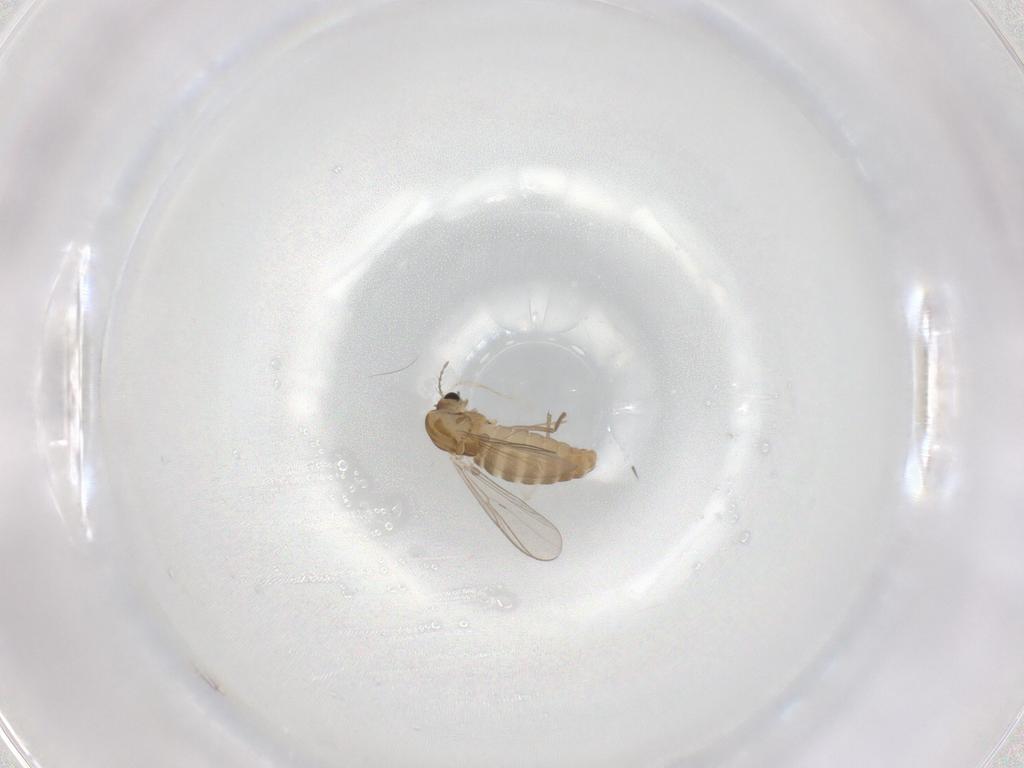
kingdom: Animalia
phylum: Arthropoda
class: Insecta
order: Diptera
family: Chironomidae
